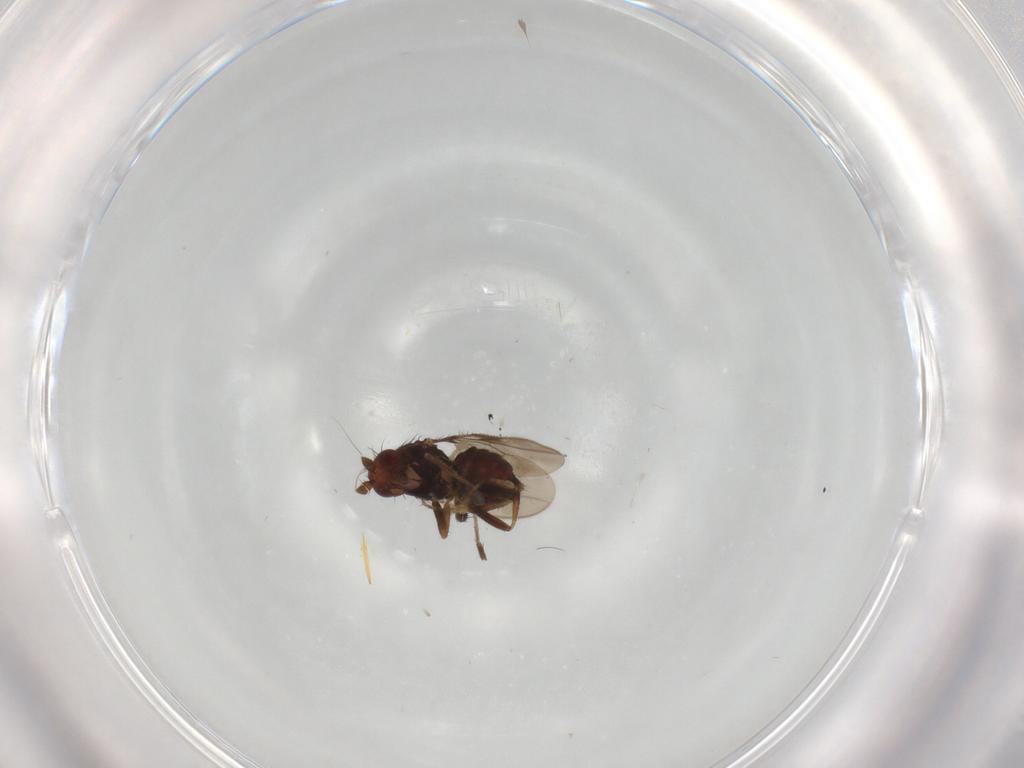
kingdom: Animalia
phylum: Arthropoda
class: Insecta
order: Diptera
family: Sphaeroceridae
